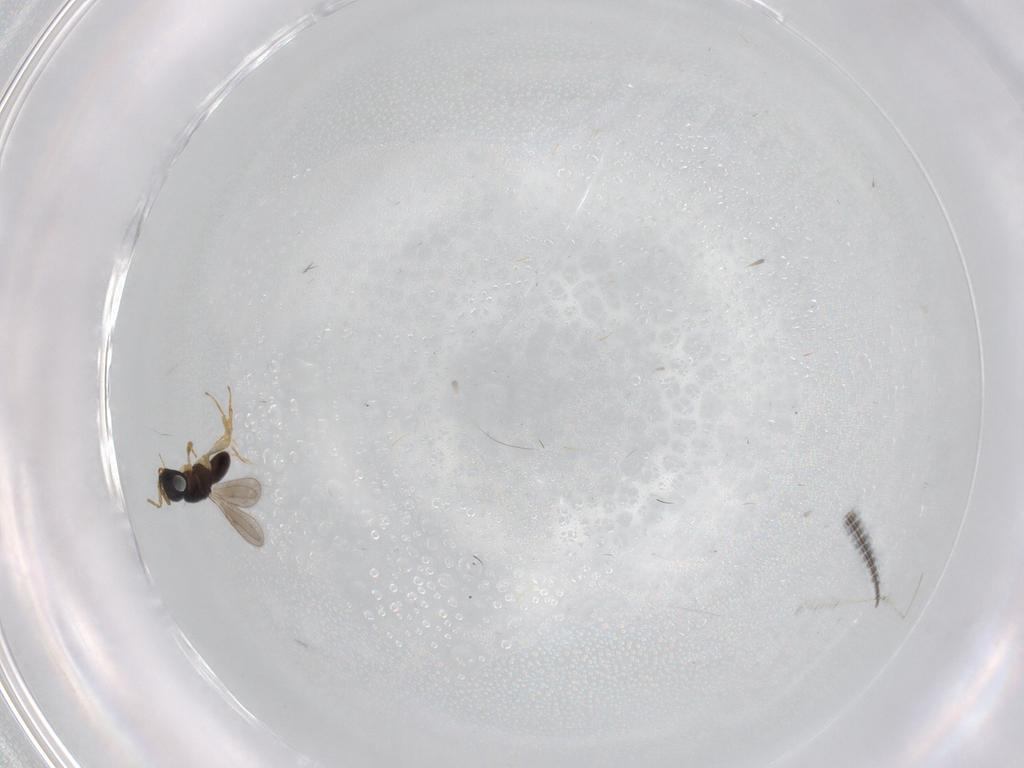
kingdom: Animalia
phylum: Arthropoda
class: Insecta
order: Hymenoptera
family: Scelionidae
